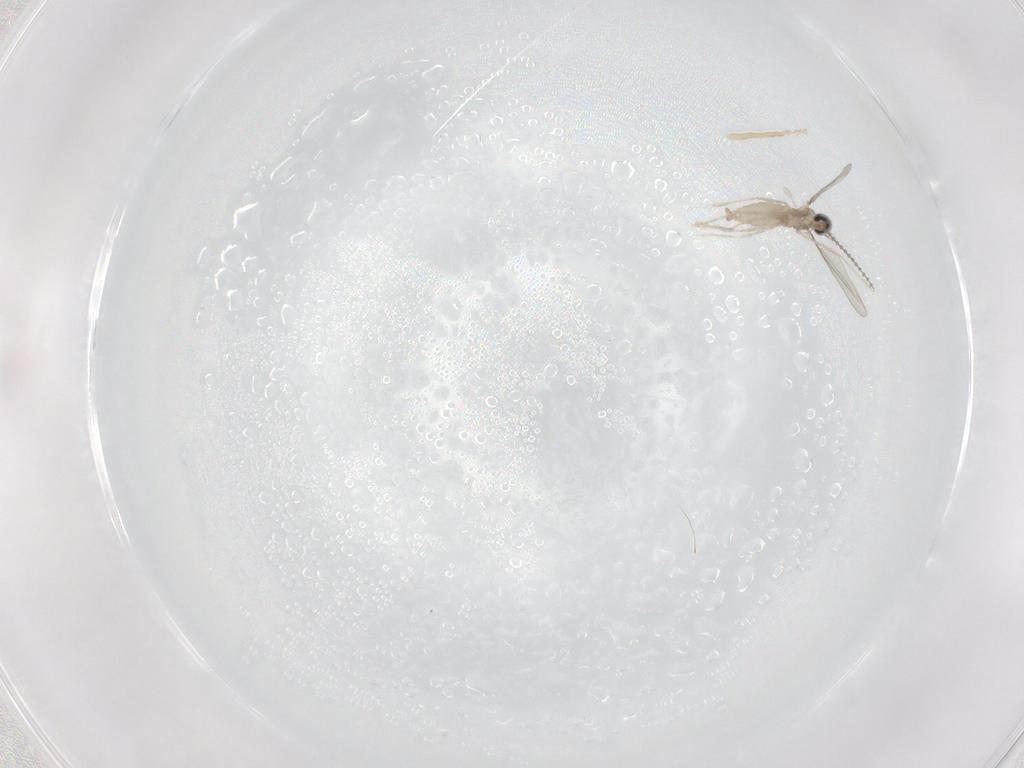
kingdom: Animalia
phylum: Arthropoda
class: Insecta
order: Diptera
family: Cecidomyiidae
